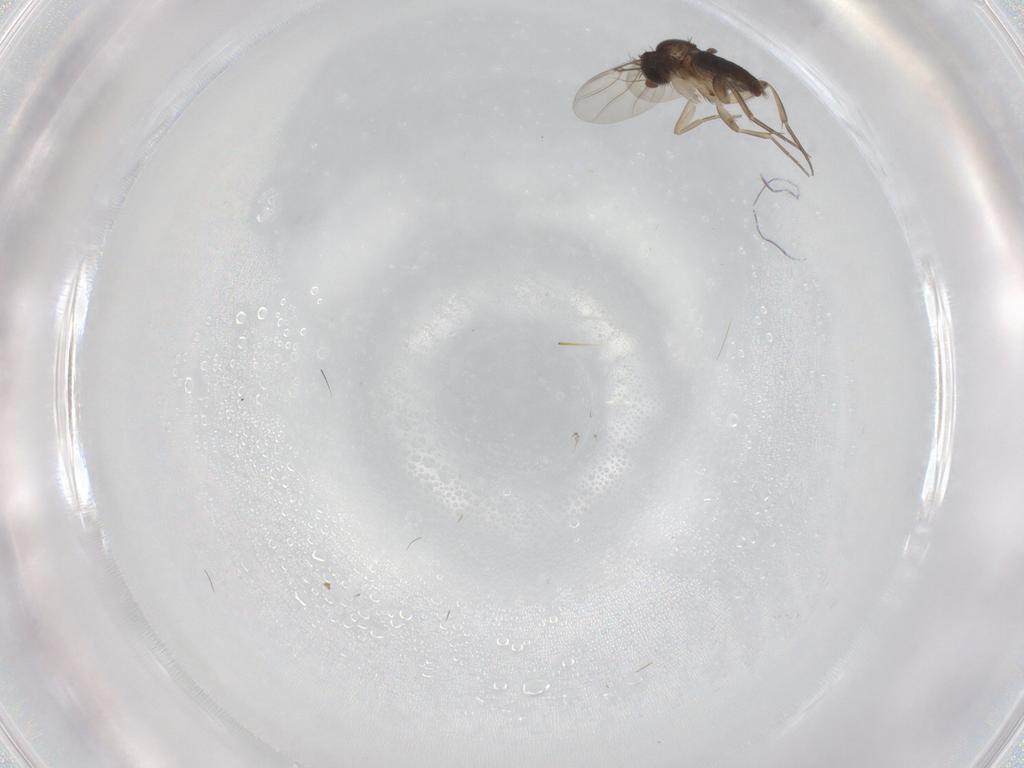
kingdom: Animalia
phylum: Arthropoda
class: Insecta
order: Diptera
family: Phoridae
